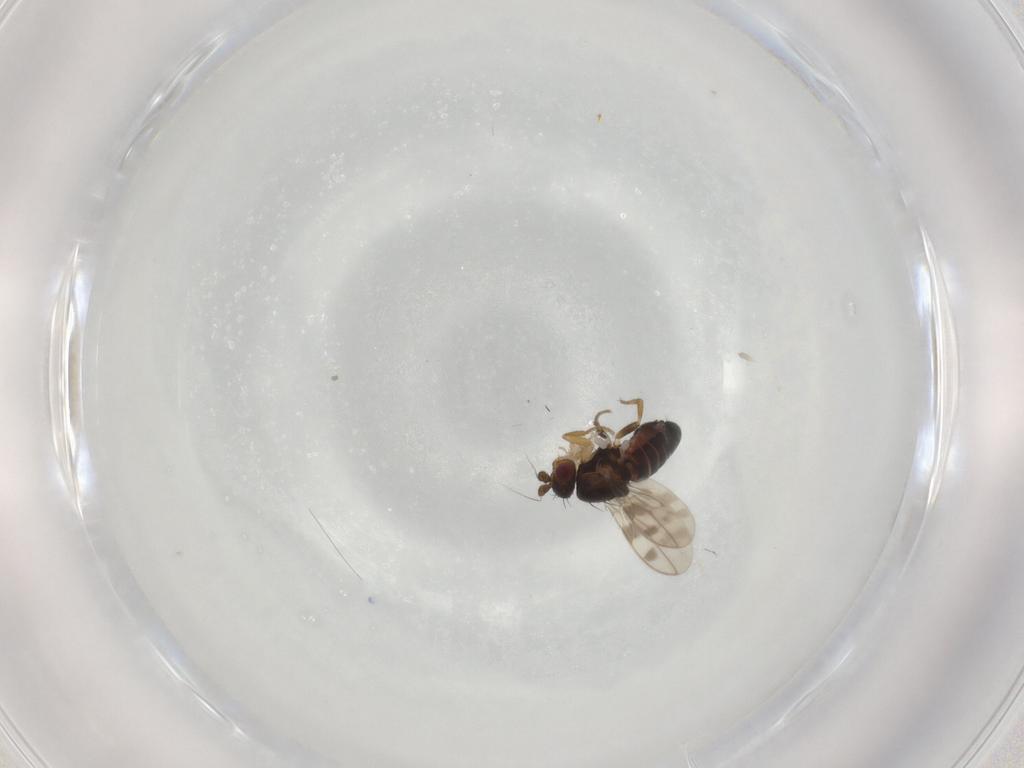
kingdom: Animalia
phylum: Arthropoda
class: Insecta
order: Diptera
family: Sphaeroceridae
